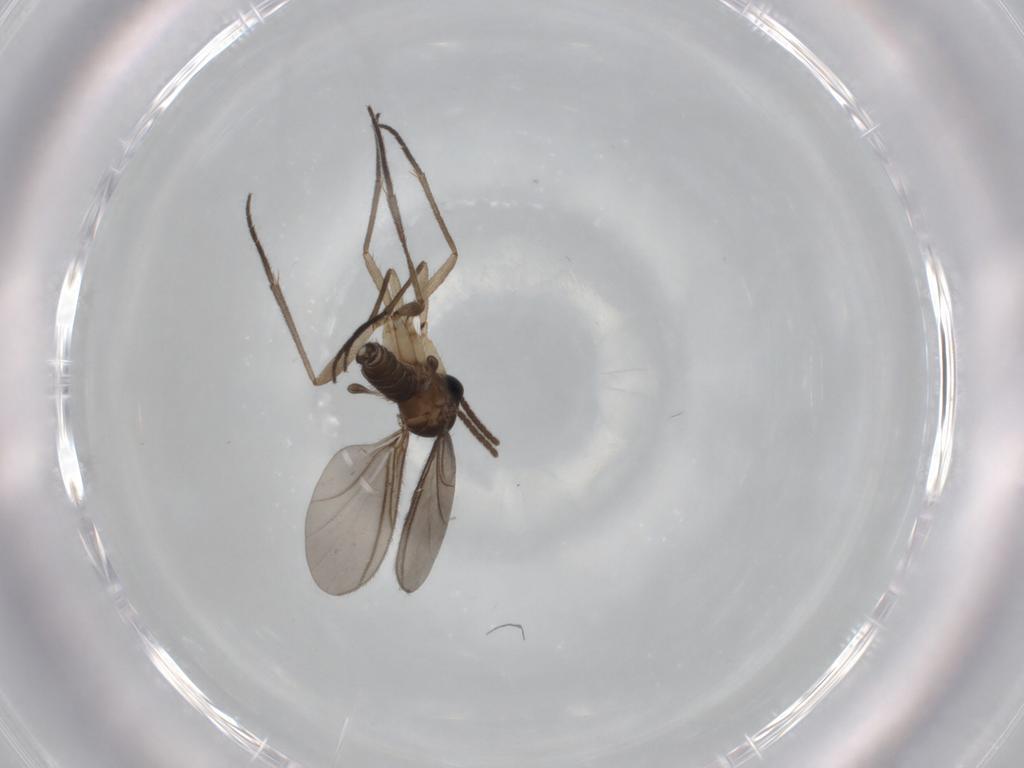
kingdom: Animalia
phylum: Arthropoda
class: Insecta
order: Diptera
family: Sciaridae
